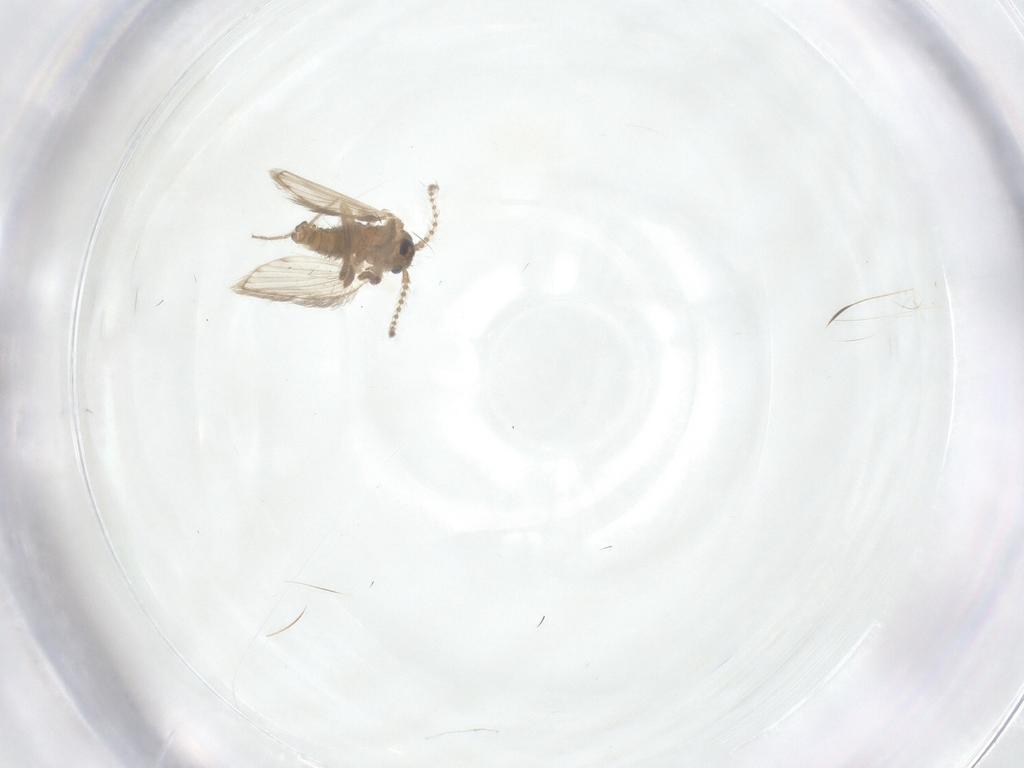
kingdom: Animalia
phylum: Arthropoda
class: Insecta
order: Diptera
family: Psychodidae
